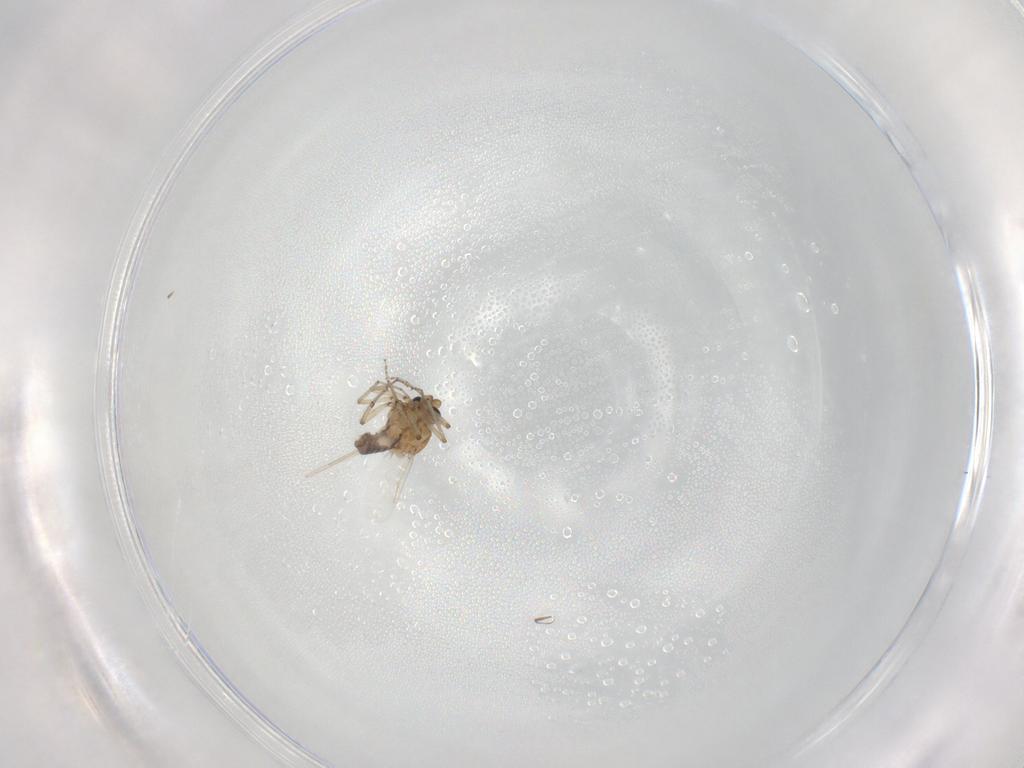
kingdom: Animalia
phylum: Arthropoda
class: Insecta
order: Diptera
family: Ceratopogonidae
